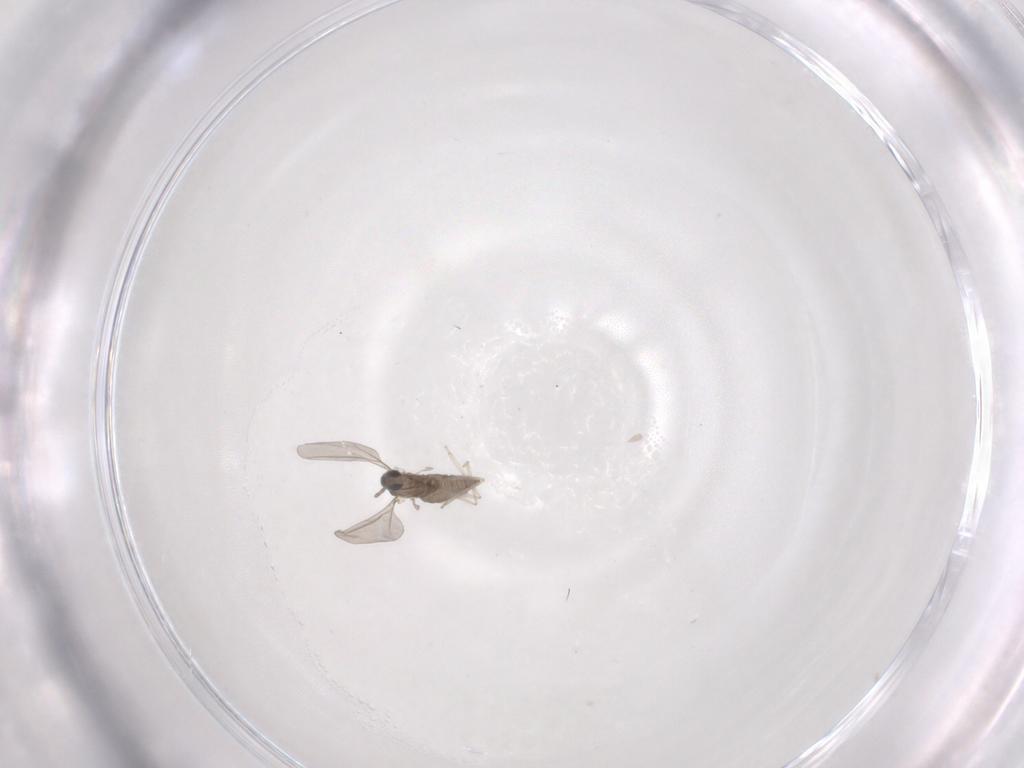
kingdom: Animalia
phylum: Arthropoda
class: Insecta
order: Diptera
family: Cecidomyiidae
